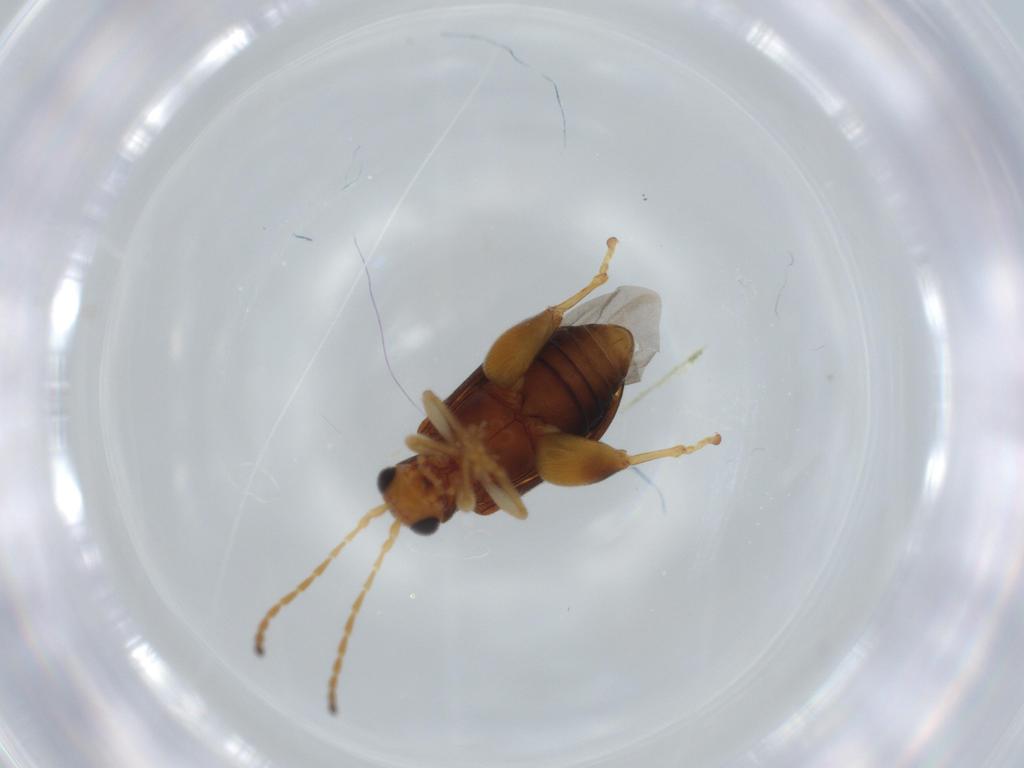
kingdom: Animalia
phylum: Arthropoda
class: Insecta
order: Coleoptera
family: Chrysomelidae
